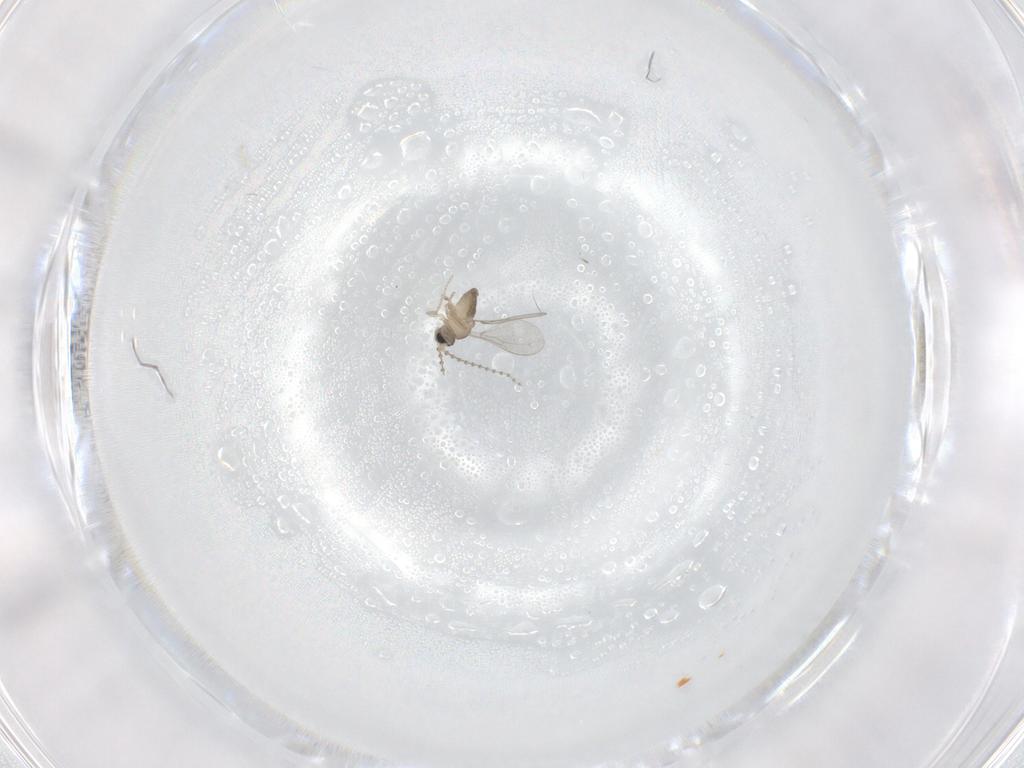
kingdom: Animalia
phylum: Arthropoda
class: Insecta
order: Diptera
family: Cecidomyiidae
